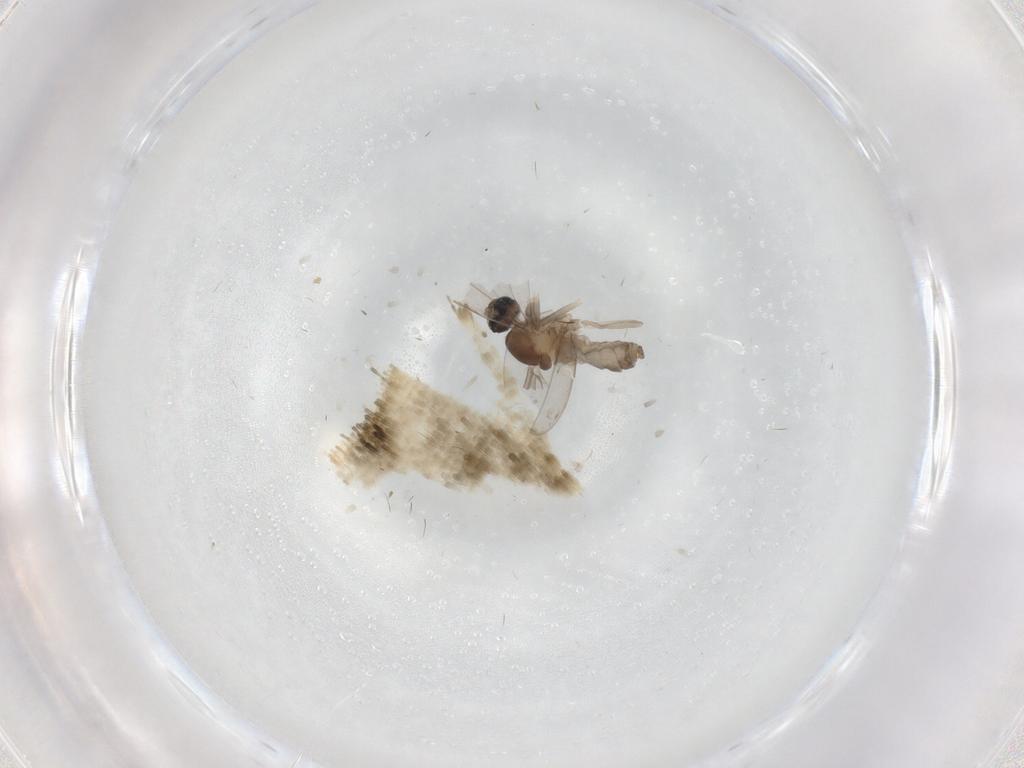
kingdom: Animalia
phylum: Arthropoda
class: Insecta
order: Diptera
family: Cecidomyiidae
